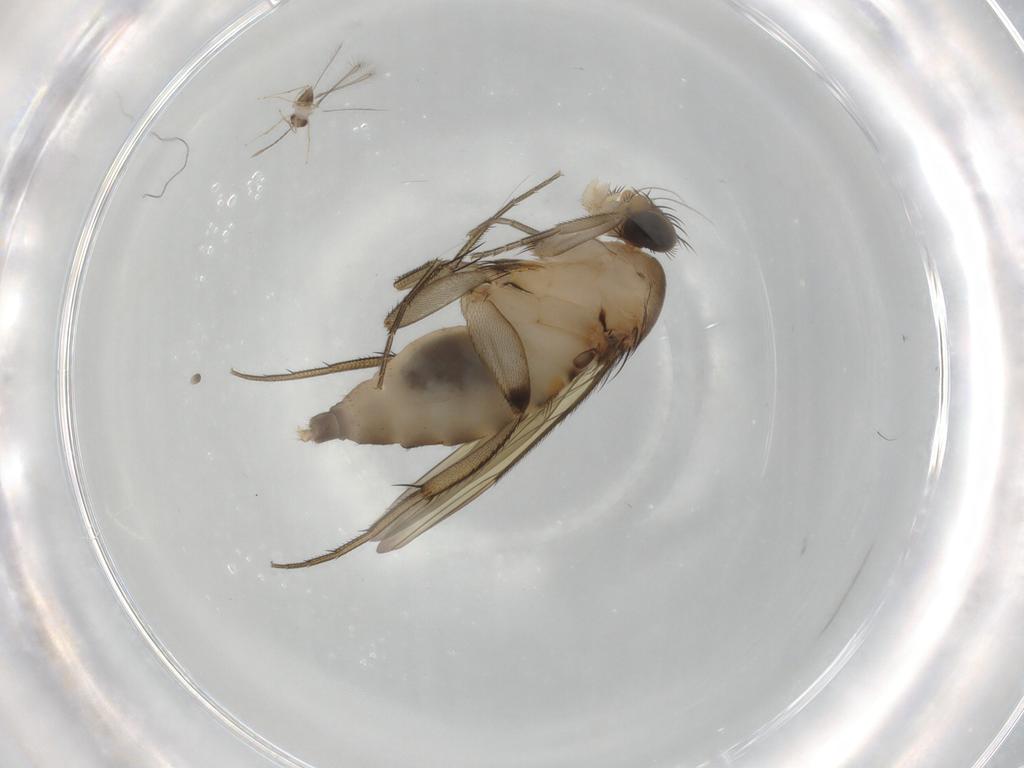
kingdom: Animalia
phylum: Arthropoda
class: Insecta
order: Diptera
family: Phoridae
